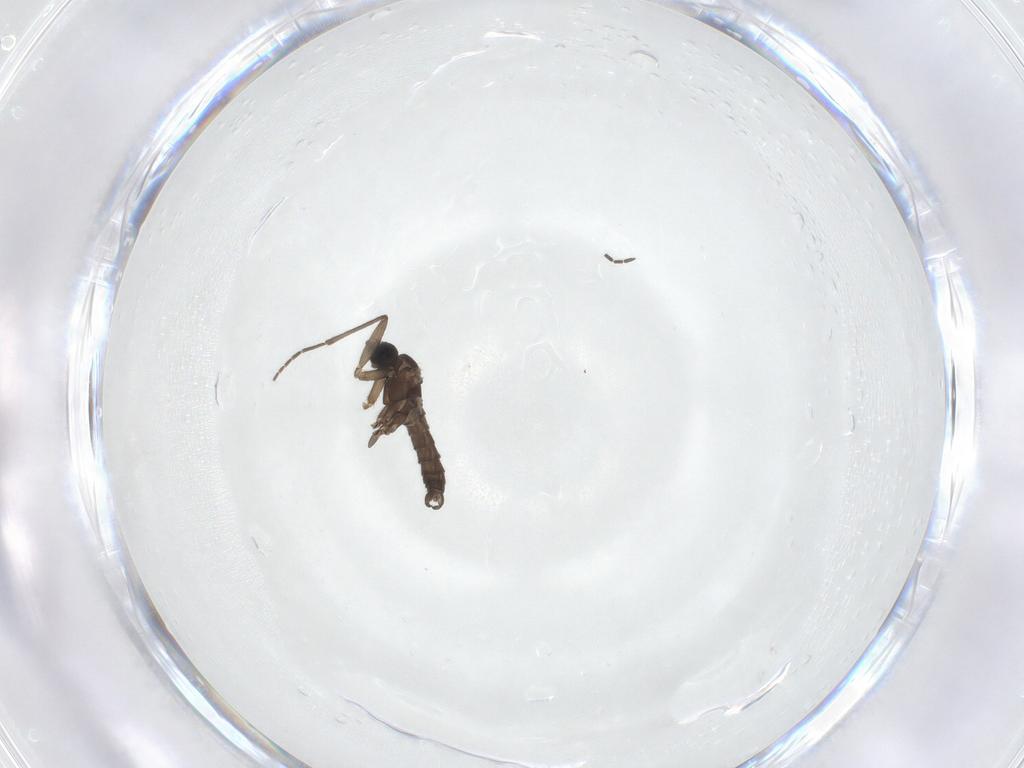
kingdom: Animalia
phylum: Arthropoda
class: Insecta
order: Diptera
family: Sciaridae
